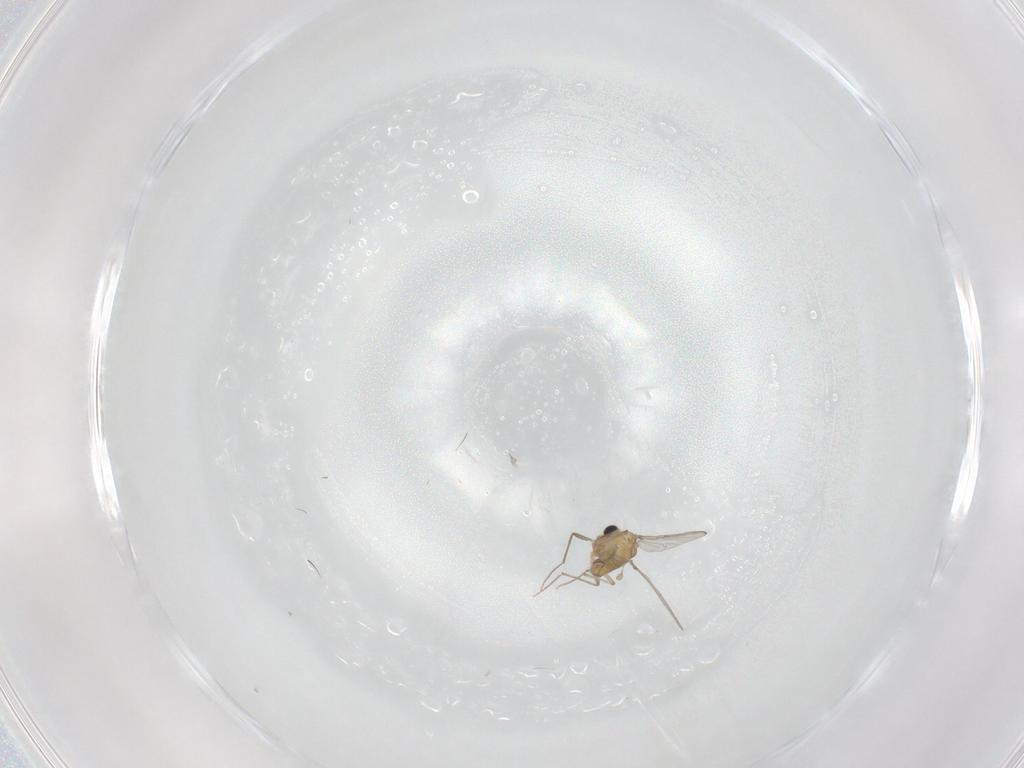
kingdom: Animalia
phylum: Arthropoda
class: Insecta
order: Diptera
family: Chironomidae
